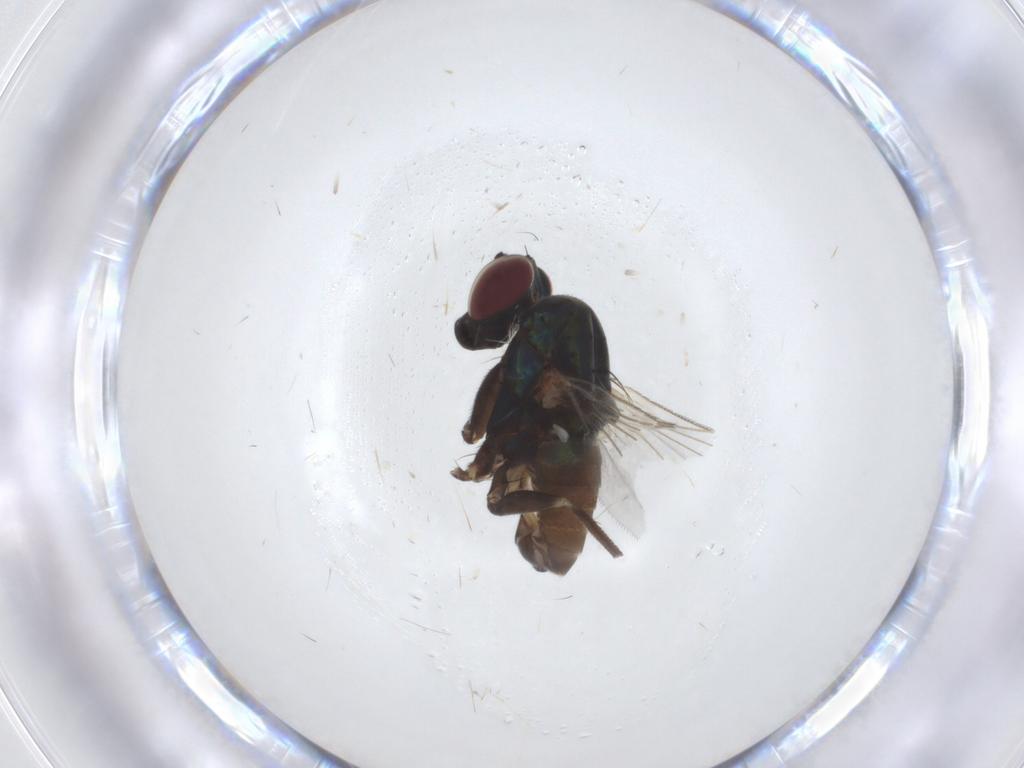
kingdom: Animalia
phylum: Arthropoda
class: Insecta
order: Diptera
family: Dolichopodidae
